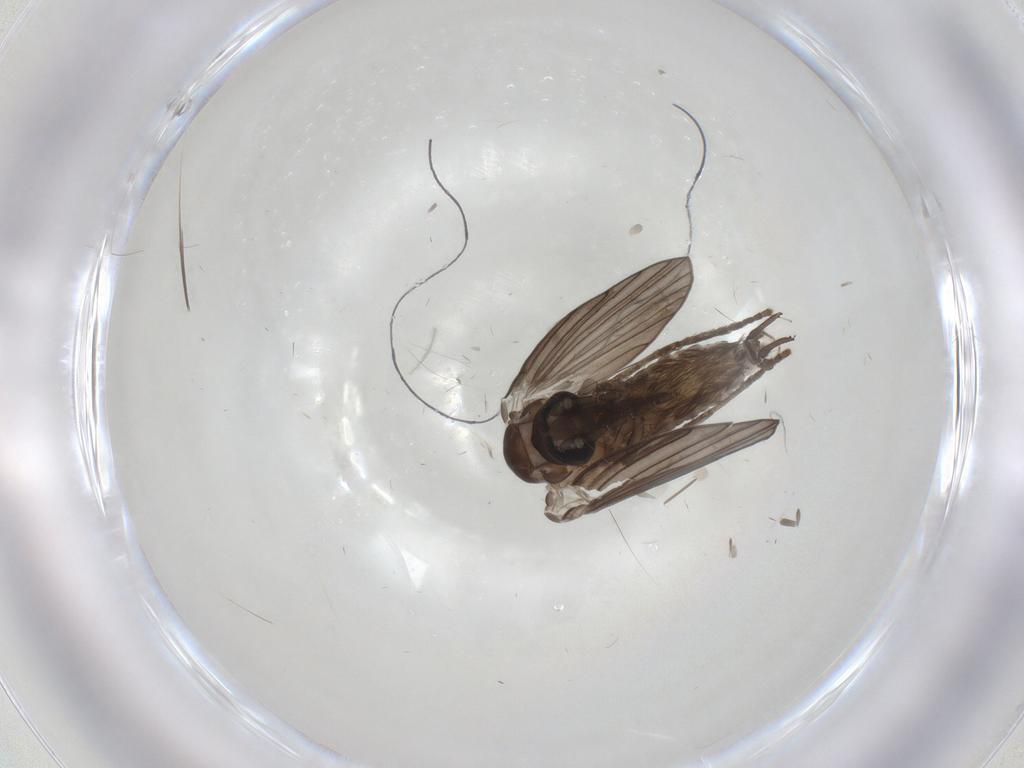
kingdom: Animalia
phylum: Arthropoda
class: Insecta
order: Diptera
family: Psychodidae
